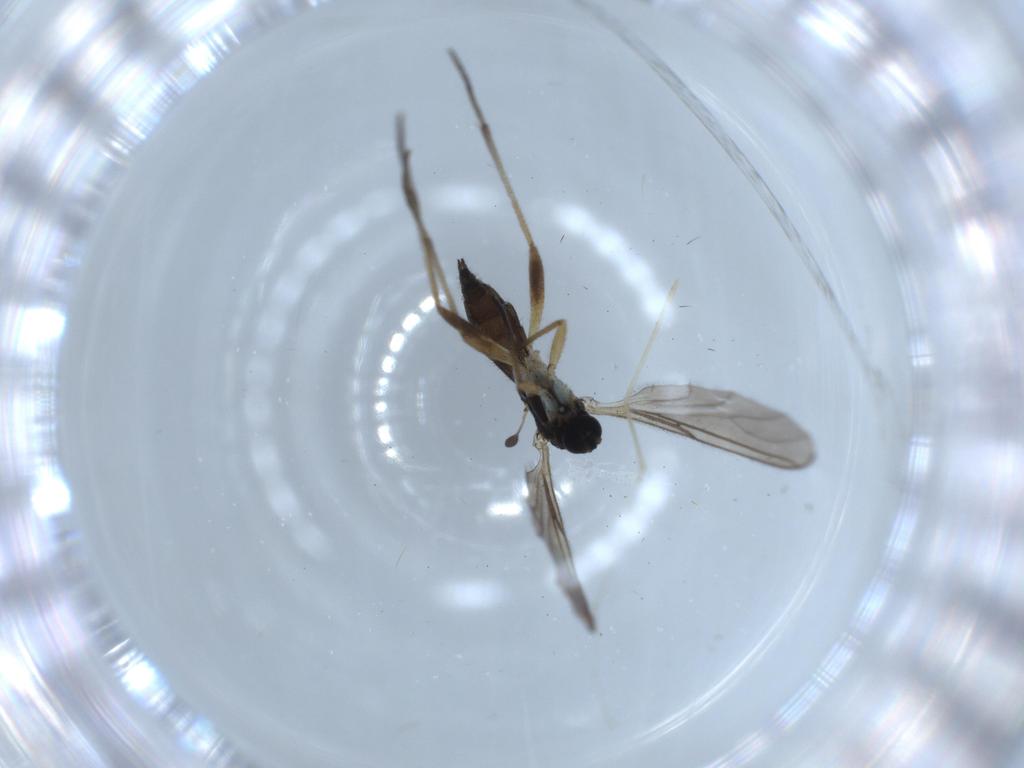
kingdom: Animalia
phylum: Arthropoda
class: Insecta
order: Diptera
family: Sciaridae
